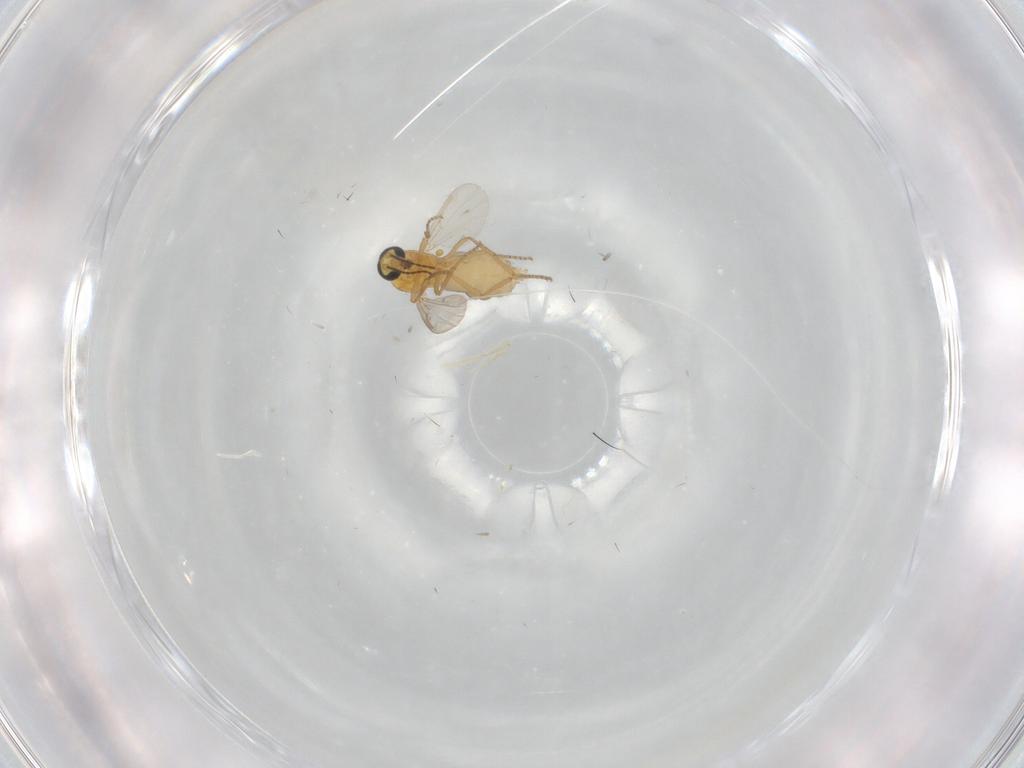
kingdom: Animalia
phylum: Arthropoda
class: Insecta
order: Diptera
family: Ceratopogonidae
